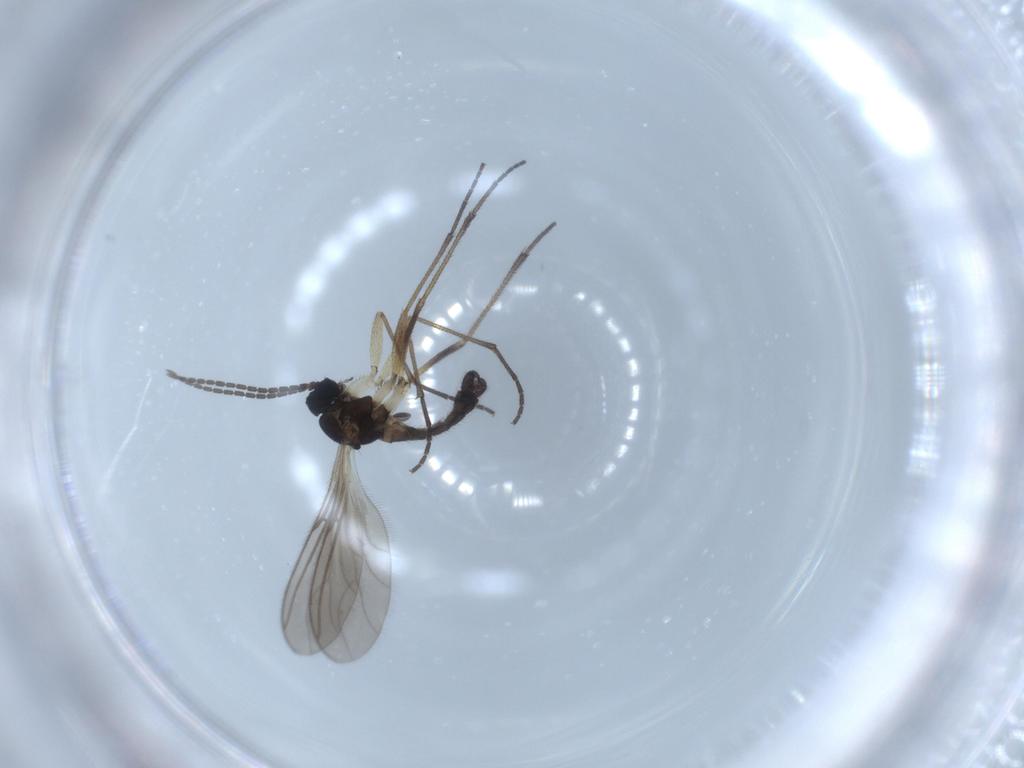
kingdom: Animalia
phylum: Arthropoda
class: Insecta
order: Diptera
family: Sciaridae
